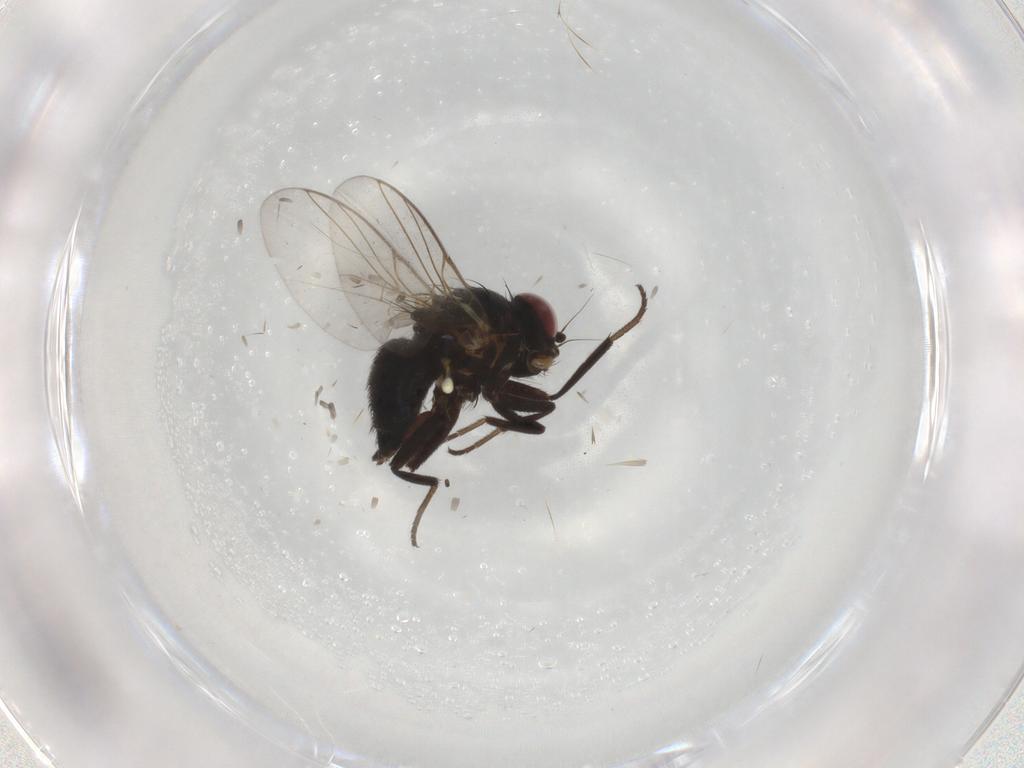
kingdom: Animalia
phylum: Arthropoda
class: Insecta
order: Diptera
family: Agromyzidae
